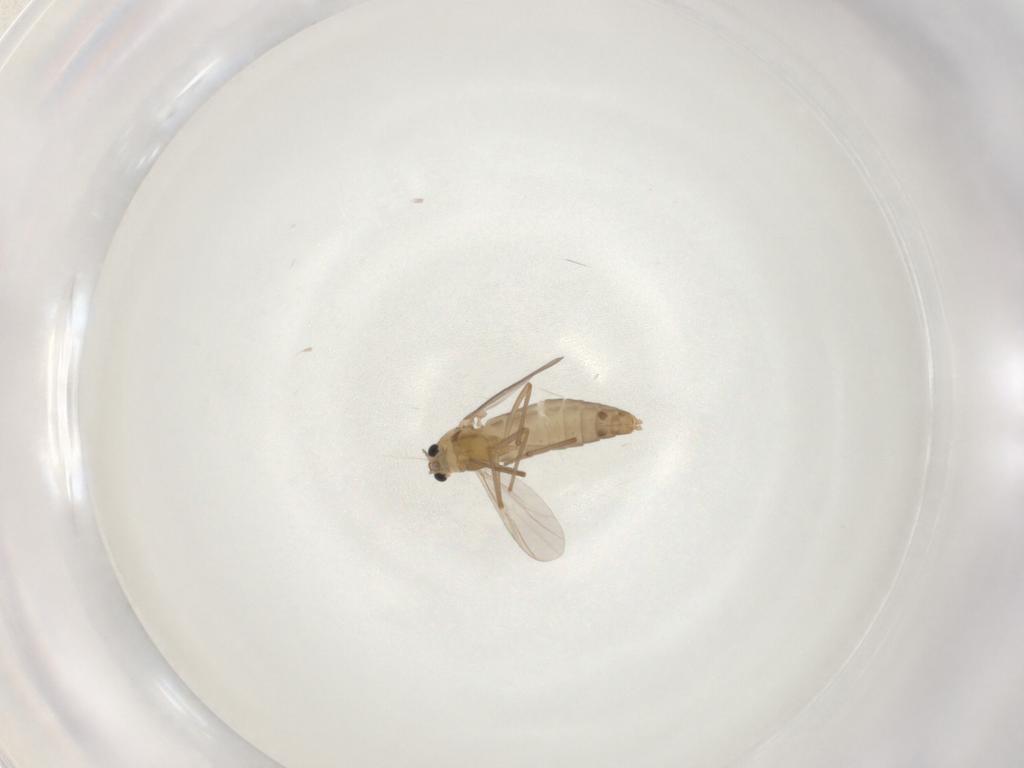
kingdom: Animalia
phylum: Arthropoda
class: Insecta
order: Diptera
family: Chironomidae
